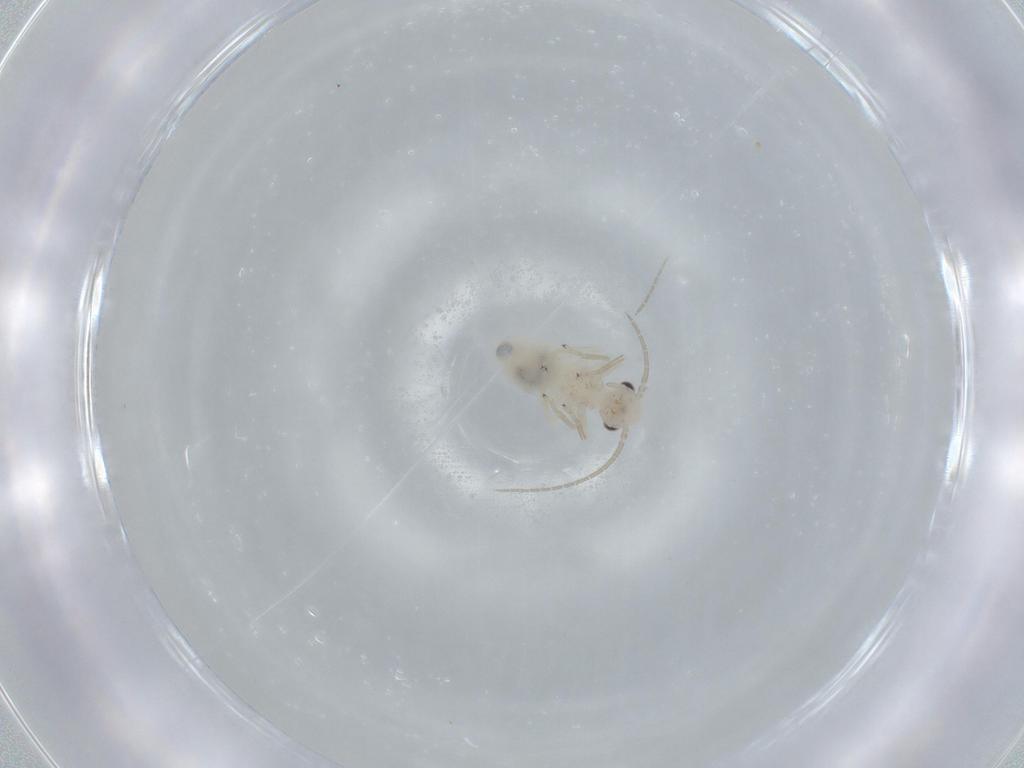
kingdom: Animalia
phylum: Arthropoda
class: Insecta
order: Psocodea
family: Caeciliusidae
